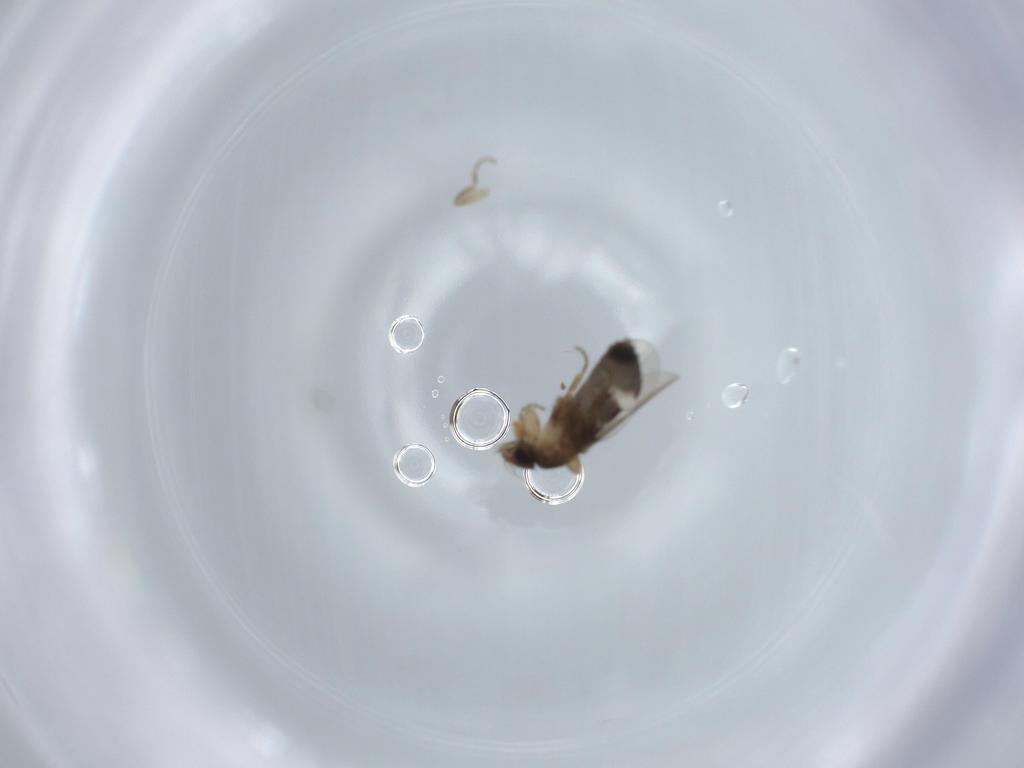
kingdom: Animalia
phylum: Arthropoda
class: Insecta
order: Diptera
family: Phoridae
